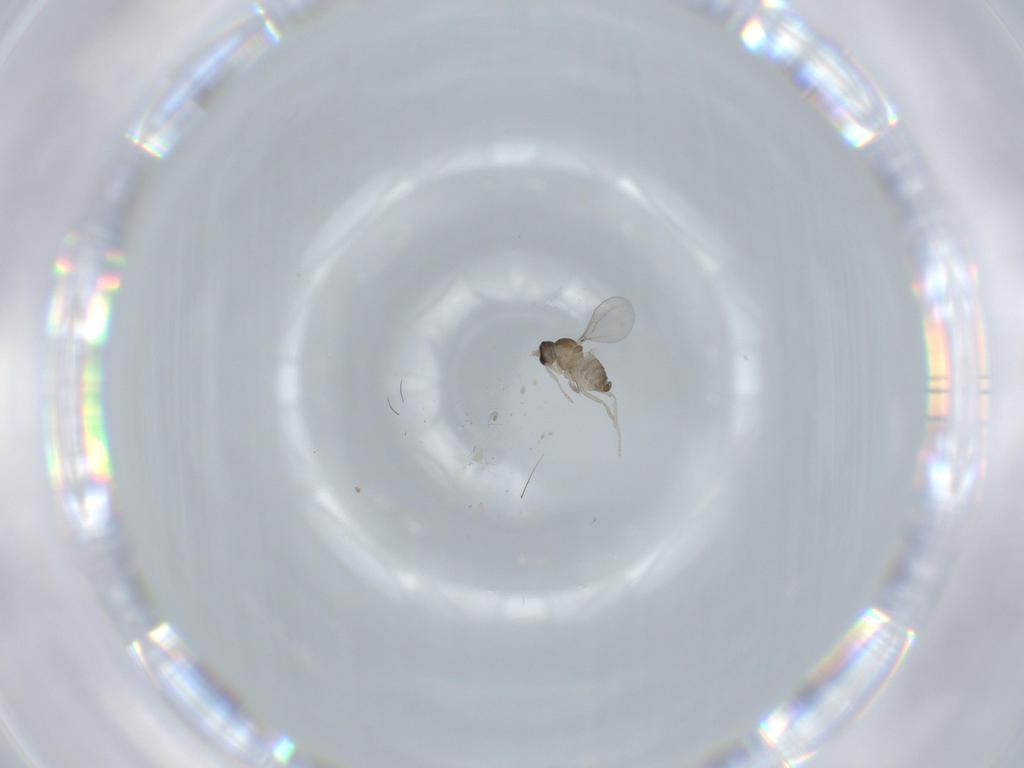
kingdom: Animalia
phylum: Arthropoda
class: Insecta
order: Diptera
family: Cecidomyiidae
